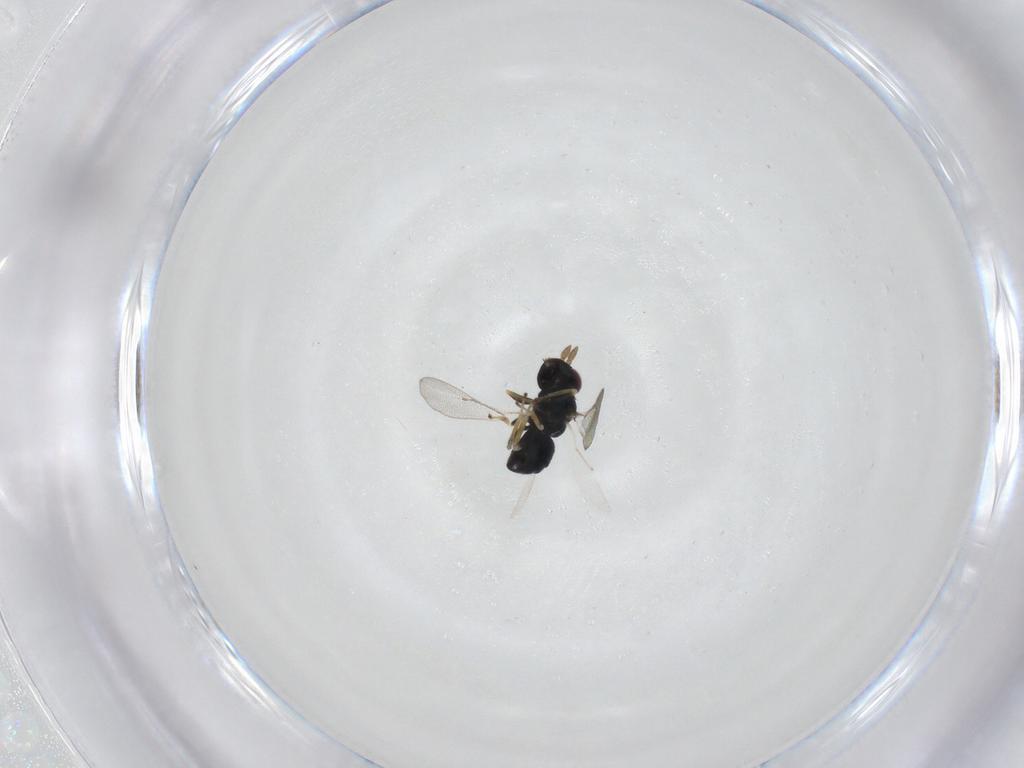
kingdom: Animalia
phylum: Arthropoda
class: Insecta
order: Hymenoptera
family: Eulophidae
